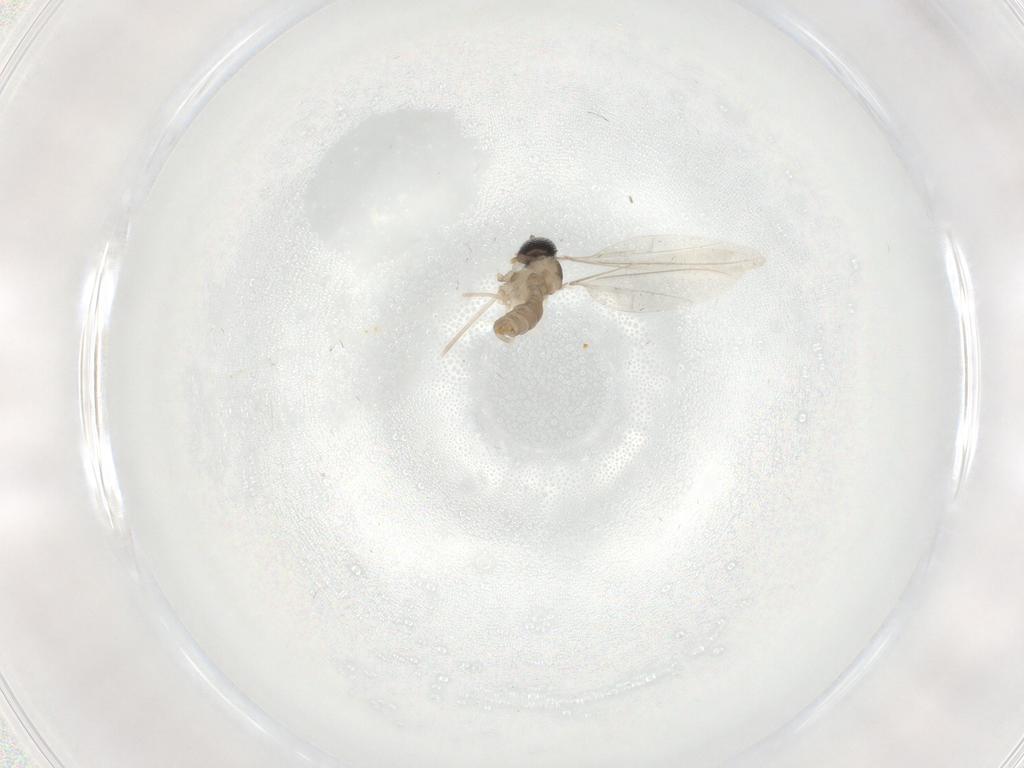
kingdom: Animalia
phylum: Arthropoda
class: Insecta
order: Diptera
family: Cecidomyiidae
